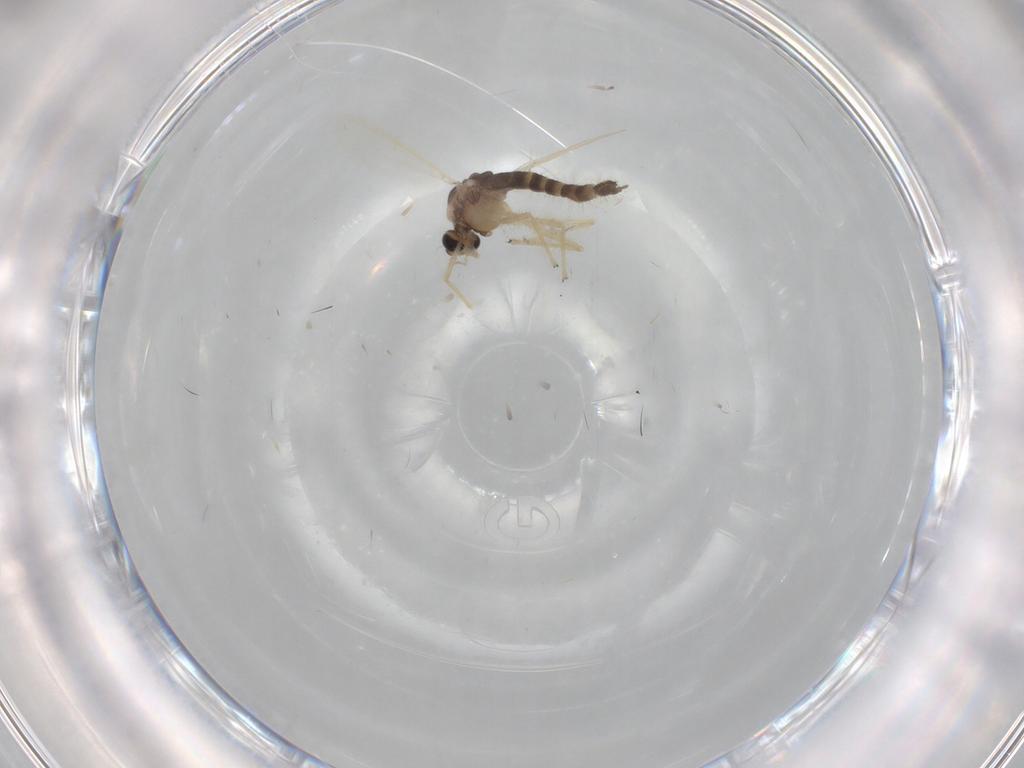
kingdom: Animalia
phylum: Arthropoda
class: Insecta
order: Diptera
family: Chironomidae
